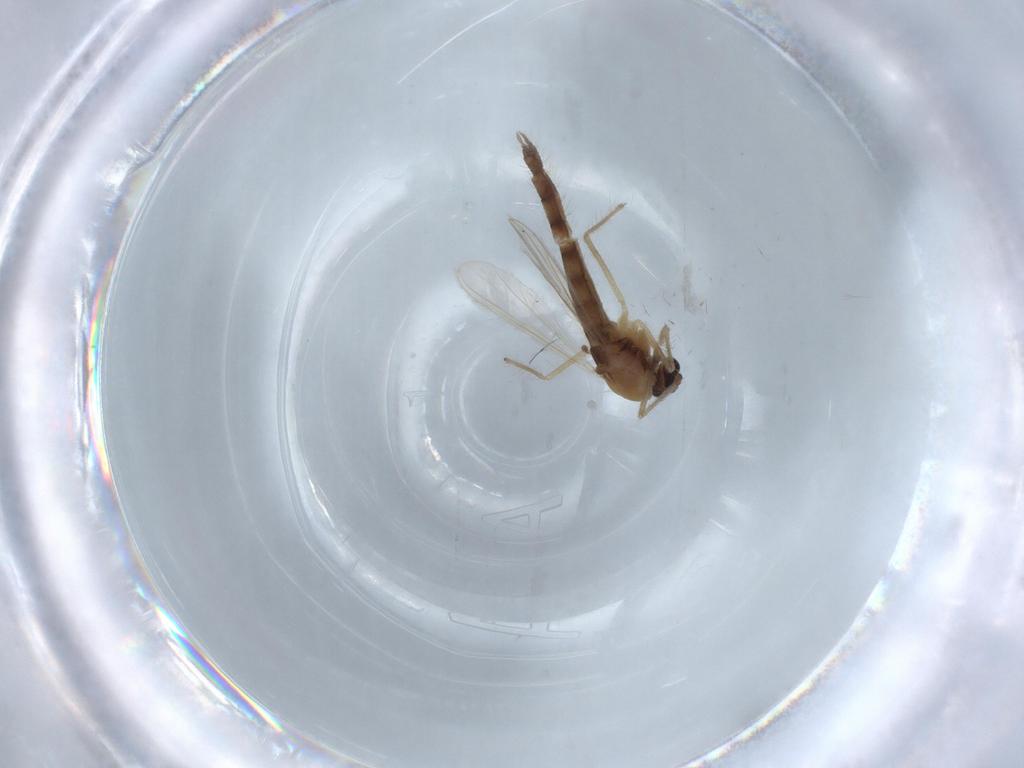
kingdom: Animalia
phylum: Arthropoda
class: Insecta
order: Diptera
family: Chironomidae
